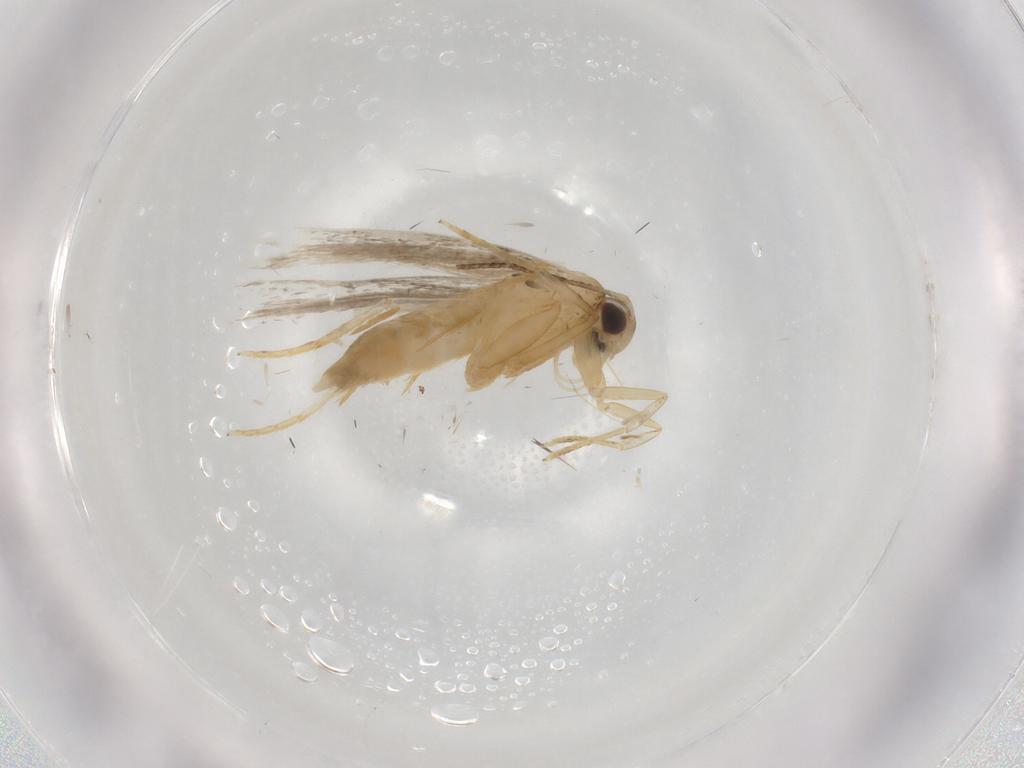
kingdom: Animalia
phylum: Arthropoda
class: Insecta
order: Lepidoptera
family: Autostichidae
